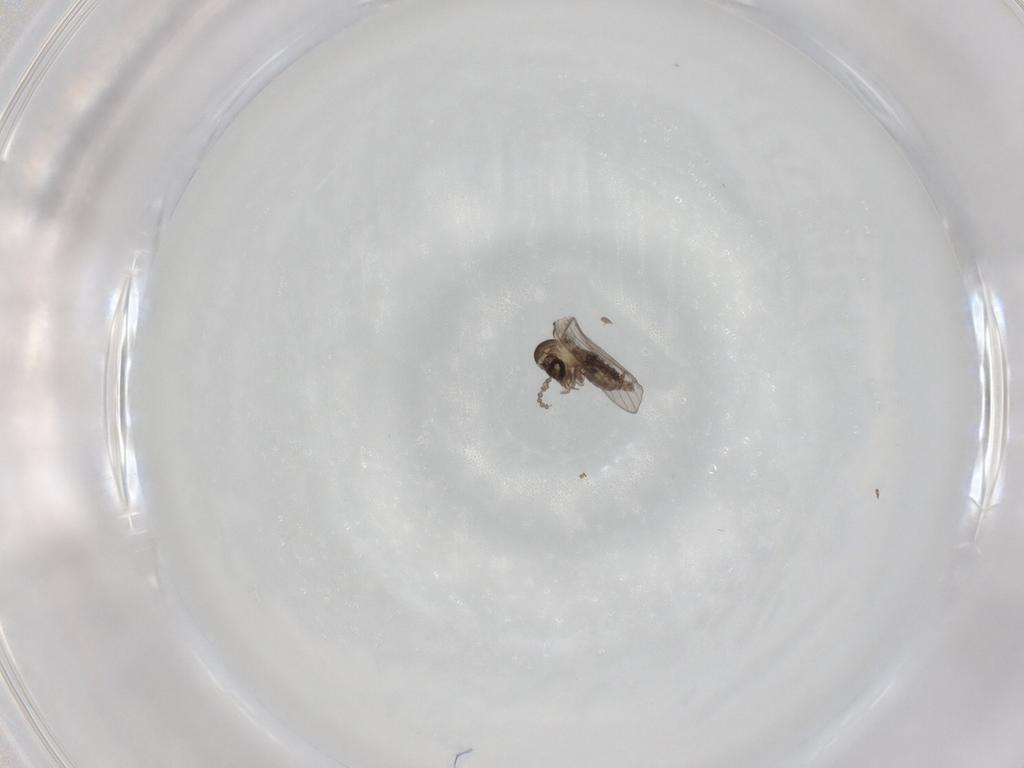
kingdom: Animalia
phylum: Arthropoda
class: Insecta
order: Diptera
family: Psychodidae
